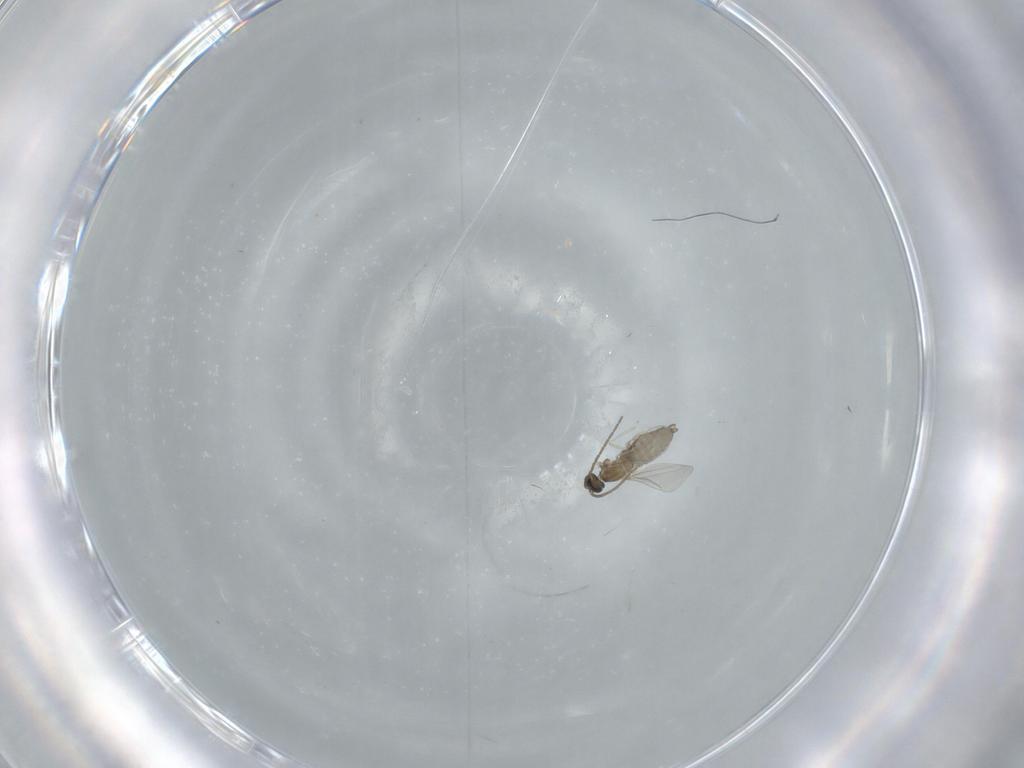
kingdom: Animalia
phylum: Arthropoda
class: Insecta
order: Diptera
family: Cecidomyiidae
